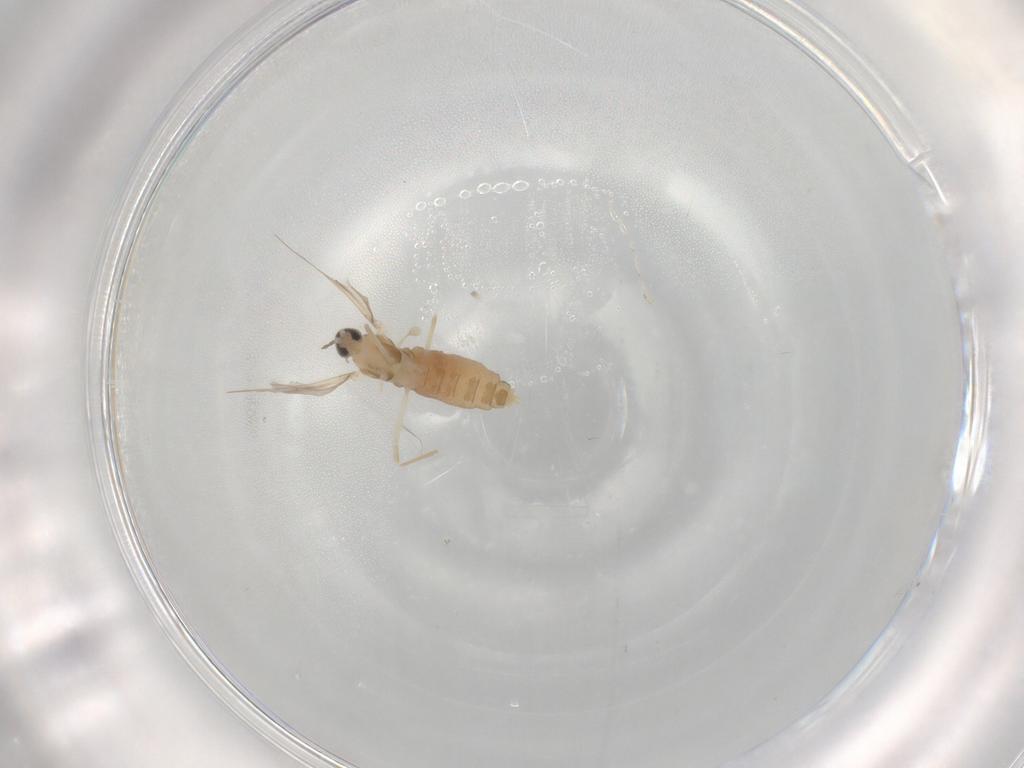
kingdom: Animalia
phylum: Arthropoda
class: Insecta
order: Diptera
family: Cecidomyiidae
